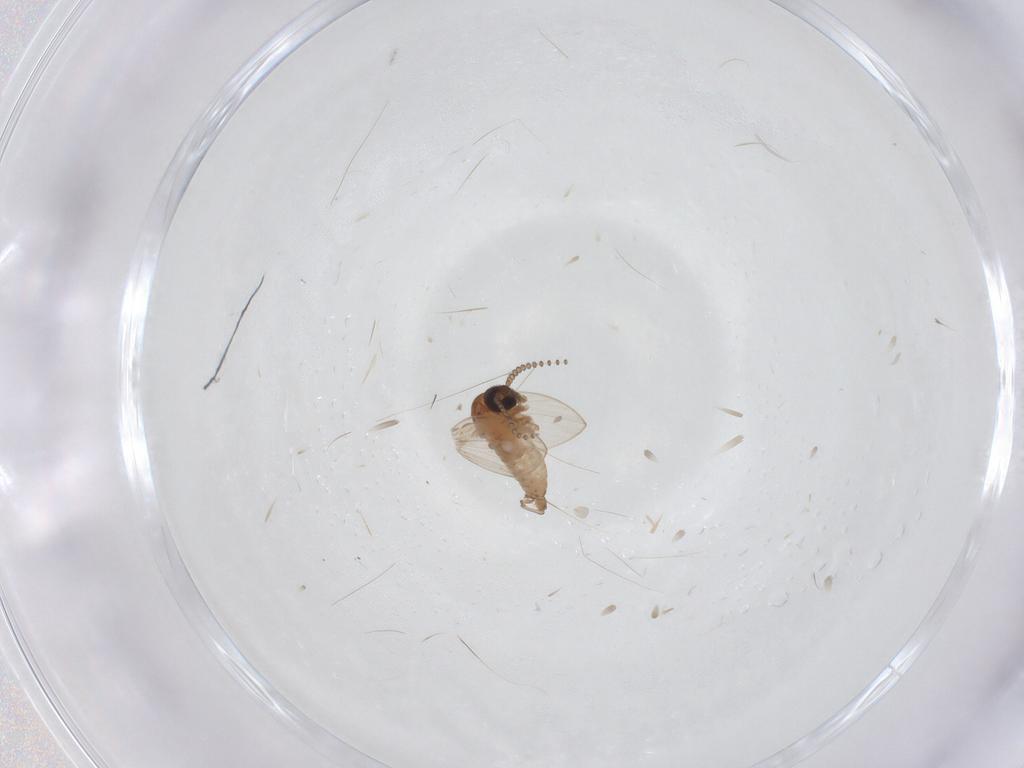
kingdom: Animalia
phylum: Arthropoda
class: Insecta
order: Diptera
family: Psychodidae
